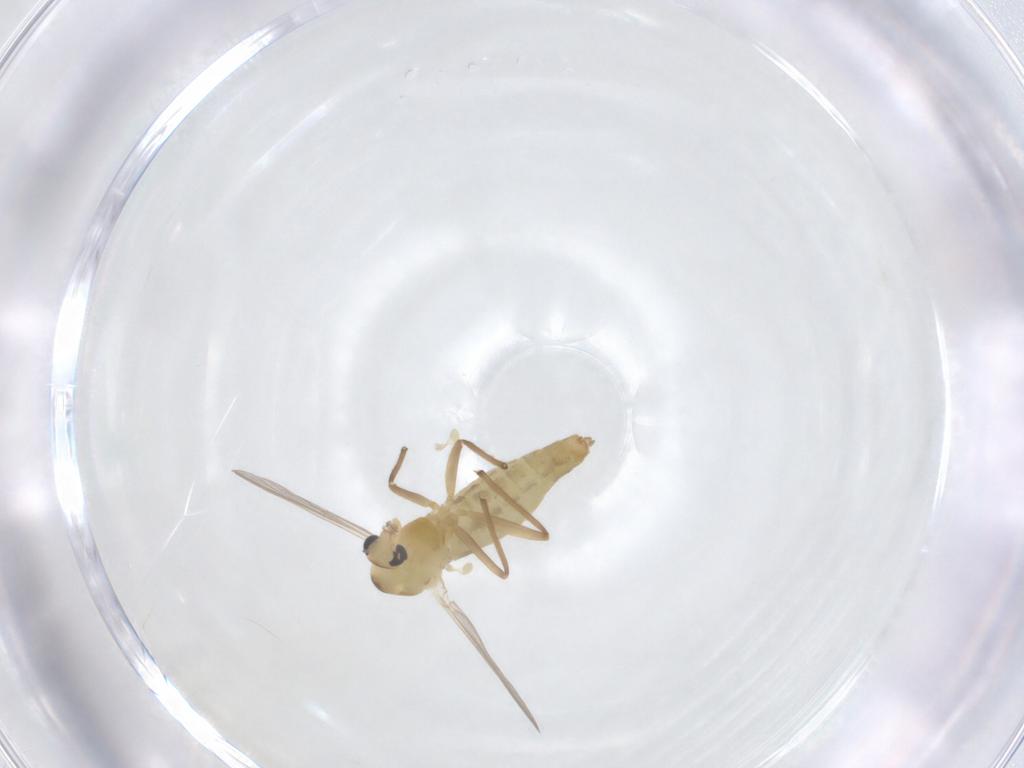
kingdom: Animalia
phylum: Arthropoda
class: Insecta
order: Diptera
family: Chironomidae
